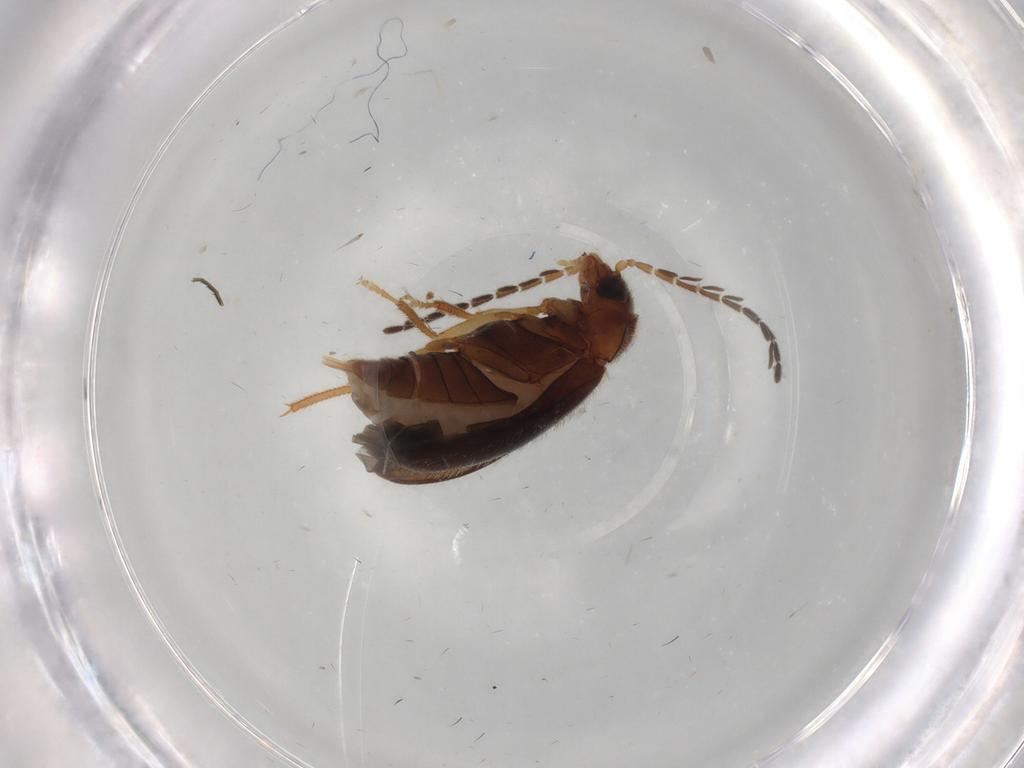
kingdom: Animalia
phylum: Arthropoda
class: Insecta
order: Coleoptera
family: Ptilodactylidae
